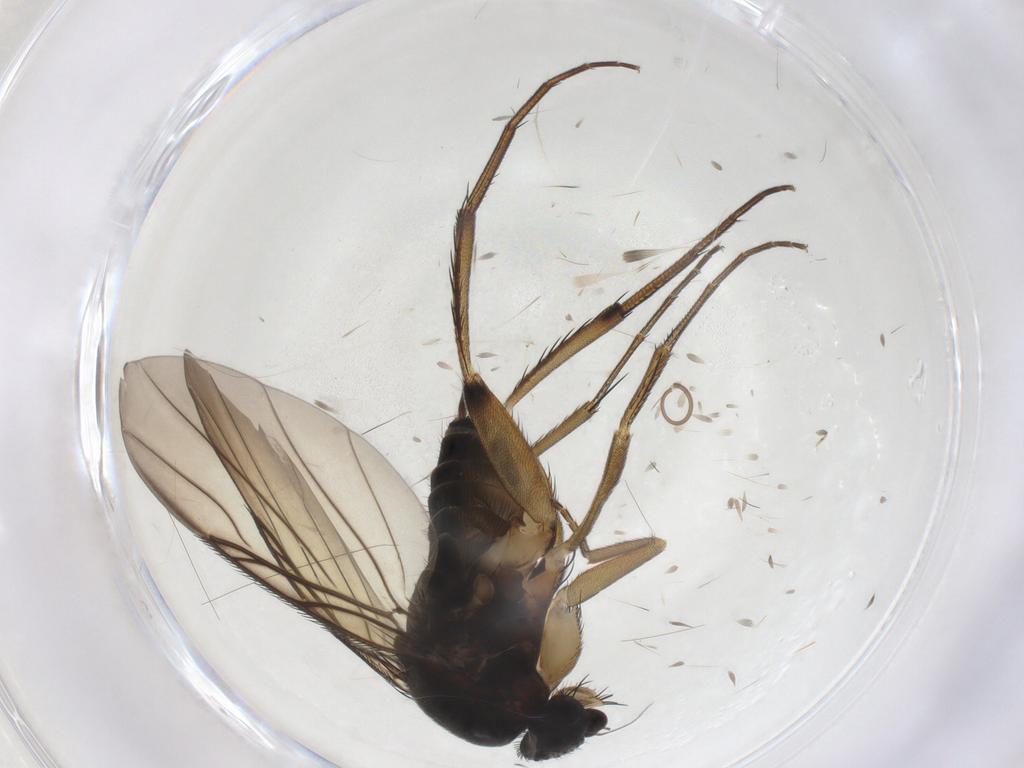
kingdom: Animalia
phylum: Arthropoda
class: Insecta
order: Diptera
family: Phoridae
